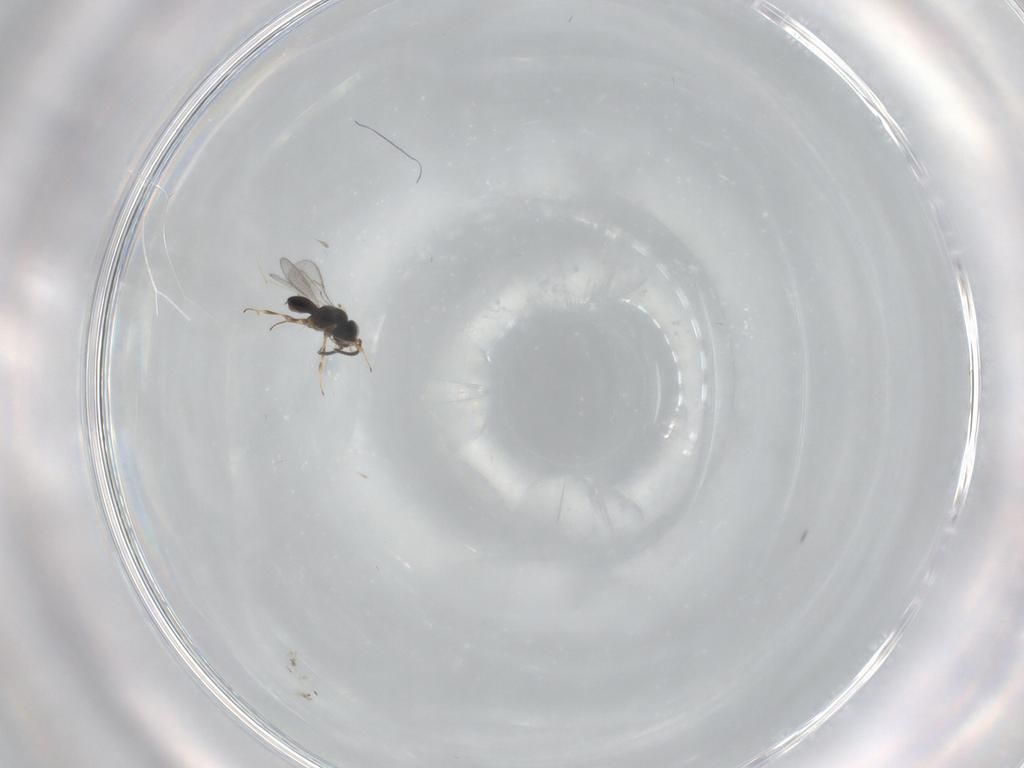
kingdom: Animalia
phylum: Arthropoda
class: Insecta
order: Hymenoptera
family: Scelionidae
